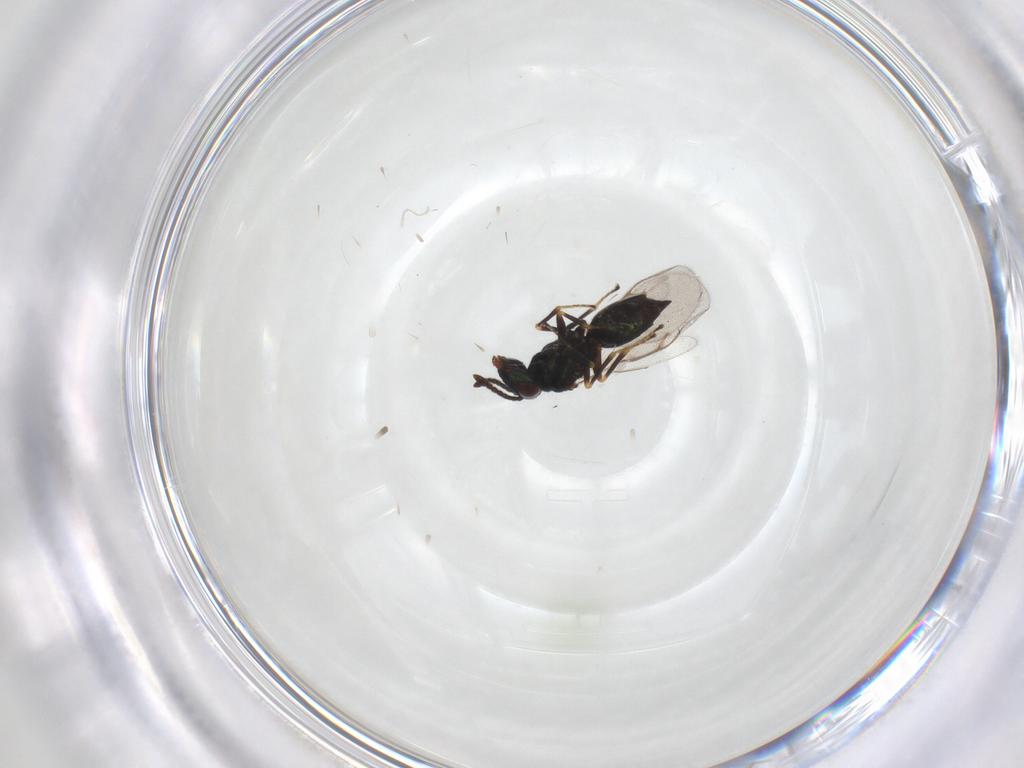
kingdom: Animalia
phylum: Arthropoda
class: Insecta
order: Hymenoptera
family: Pteromalidae
